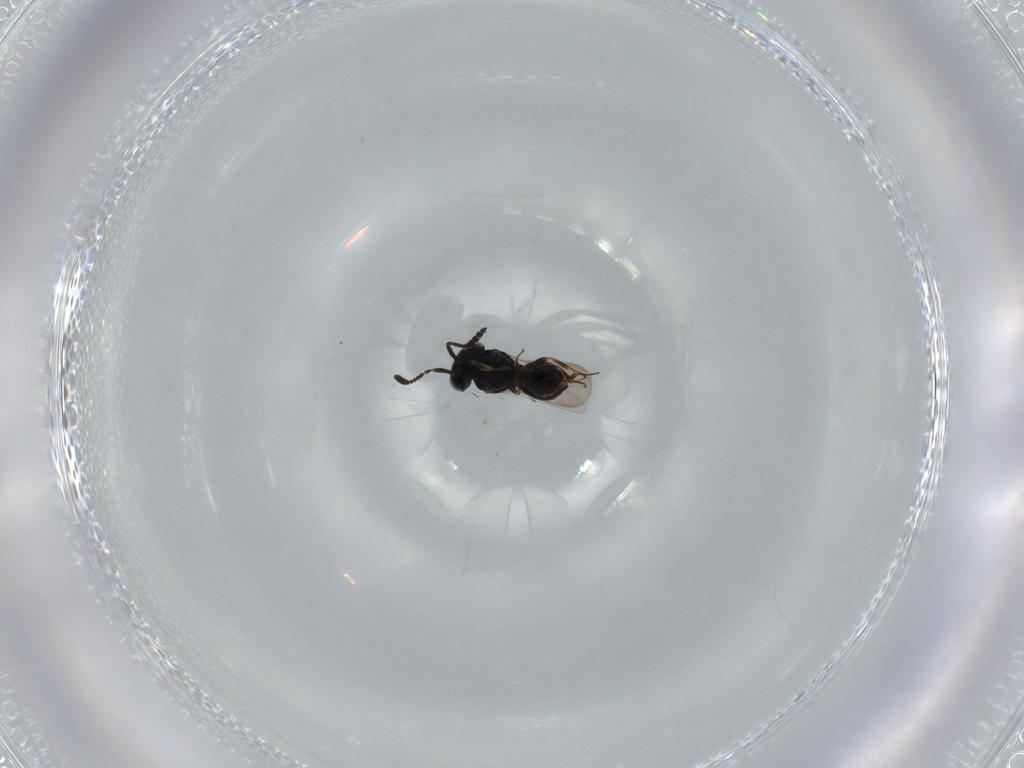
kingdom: Animalia
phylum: Arthropoda
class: Insecta
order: Hymenoptera
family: Scelionidae
